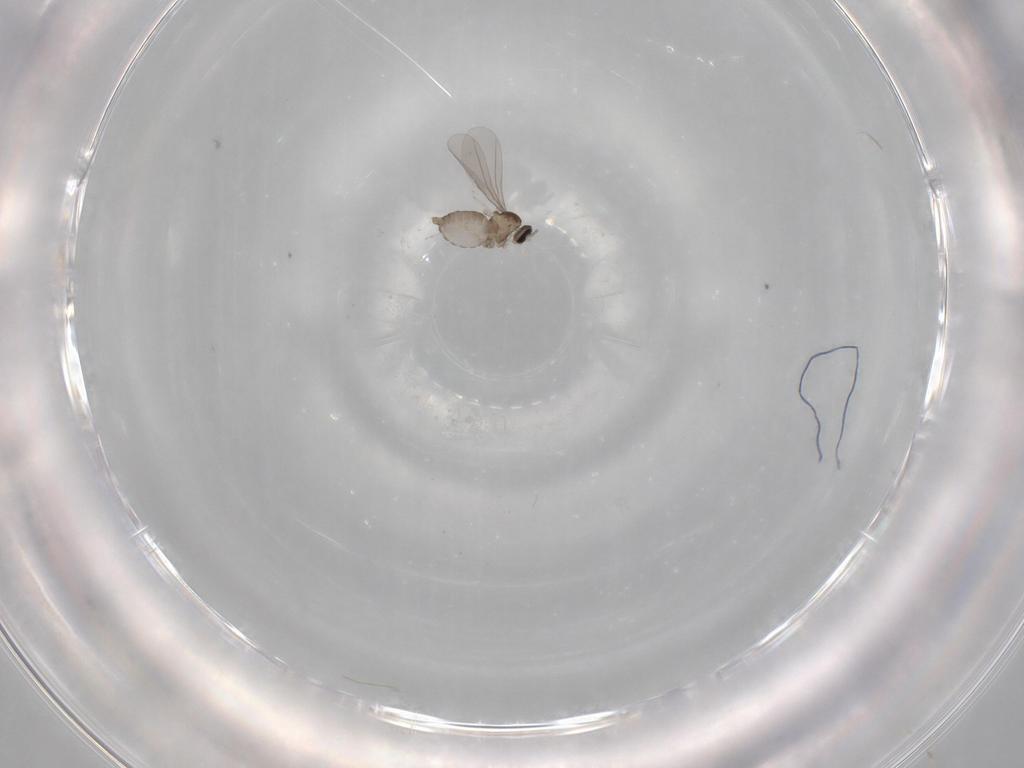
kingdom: Animalia
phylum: Arthropoda
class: Insecta
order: Diptera
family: Cecidomyiidae
